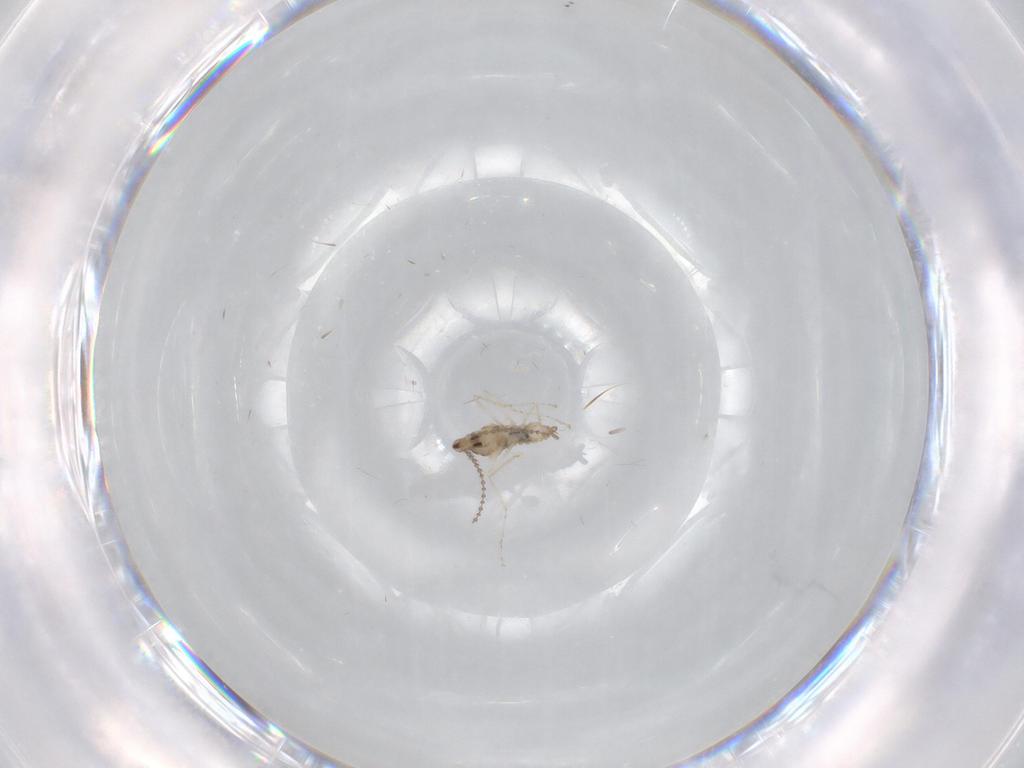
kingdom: Animalia
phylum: Arthropoda
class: Insecta
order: Diptera
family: Cecidomyiidae
